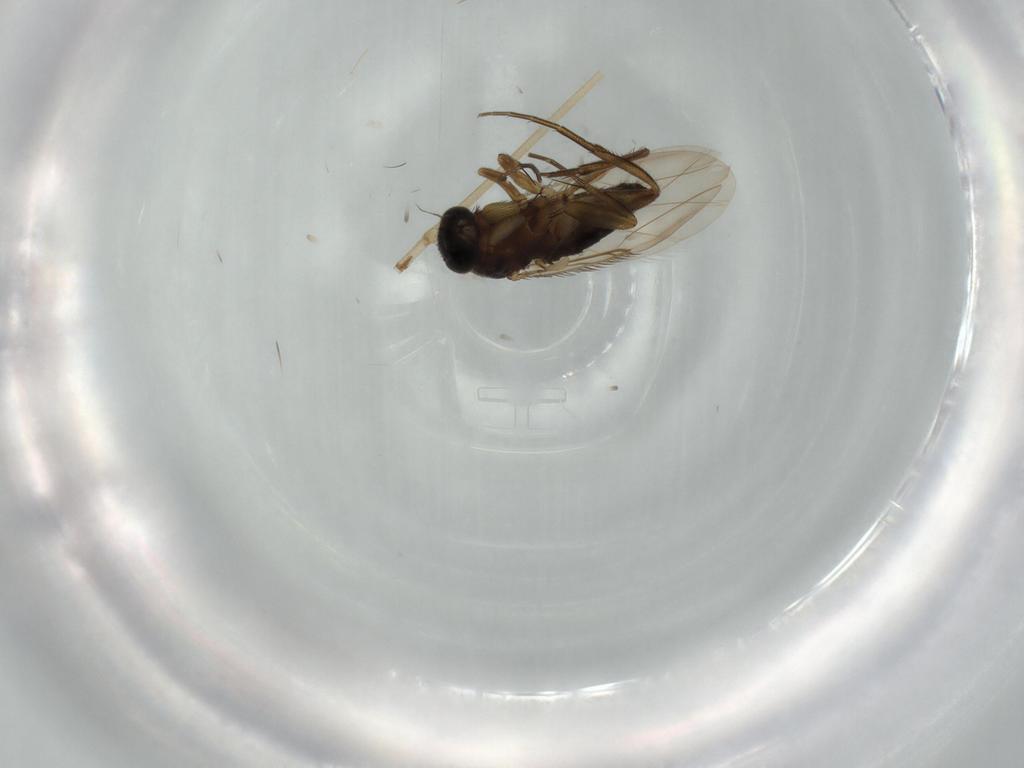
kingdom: Animalia
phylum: Arthropoda
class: Insecta
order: Diptera
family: Phoridae
